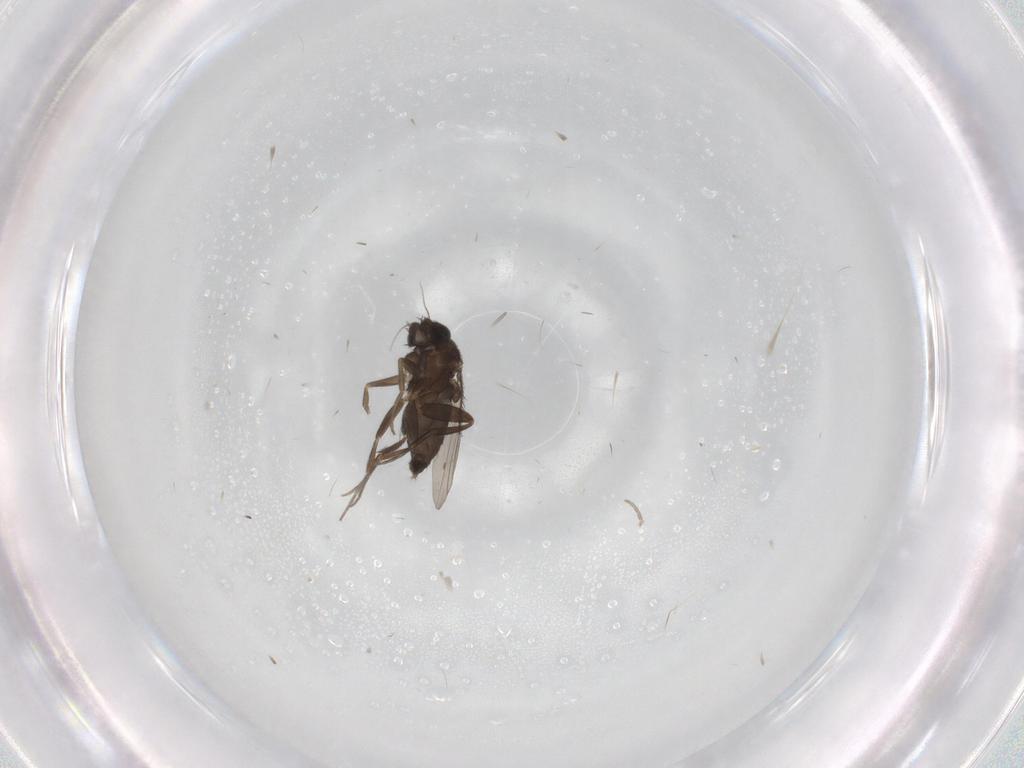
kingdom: Animalia
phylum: Arthropoda
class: Insecta
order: Diptera
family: Phoridae
